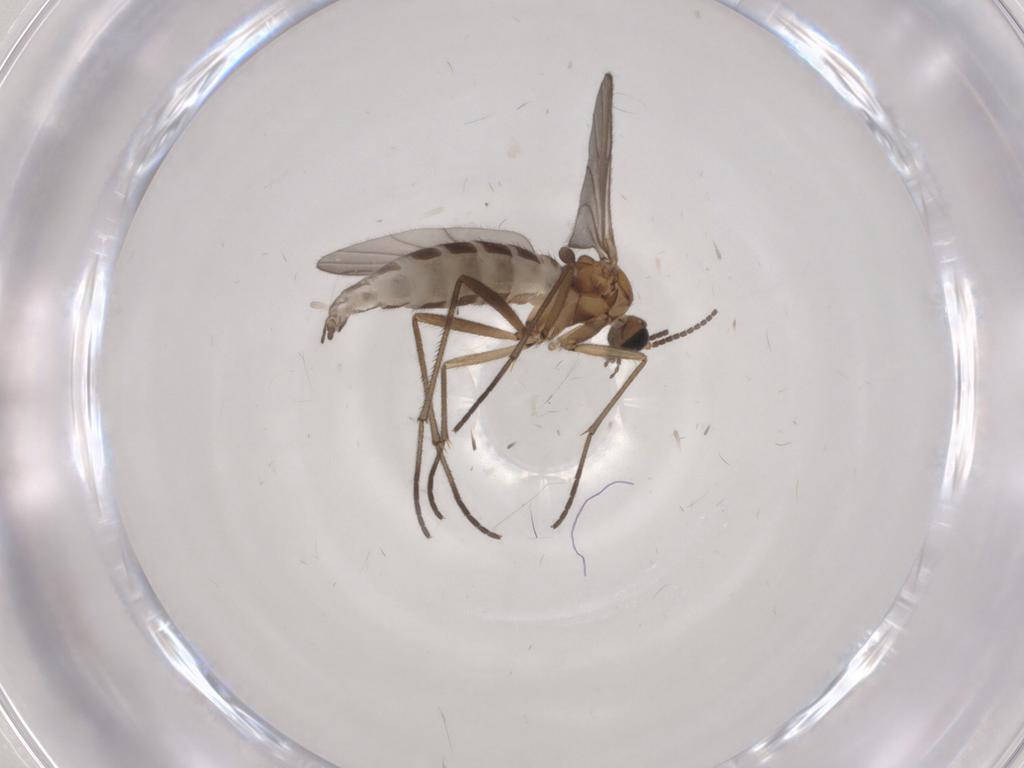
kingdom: Animalia
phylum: Arthropoda
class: Insecta
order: Diptera
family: Sciaridae
